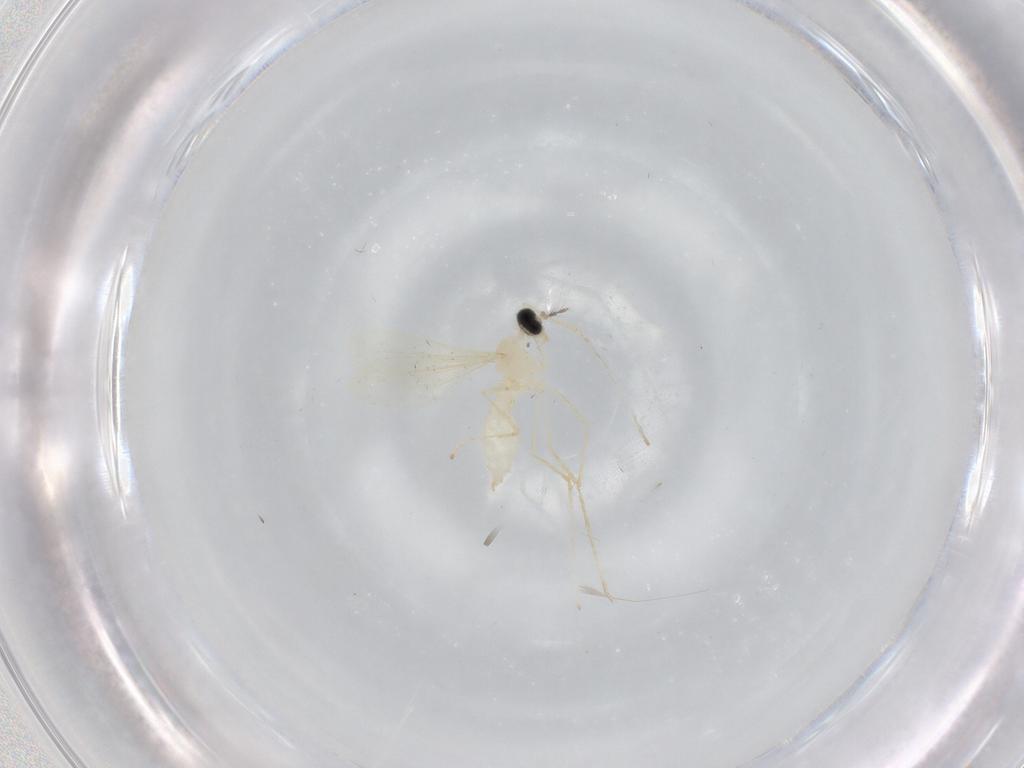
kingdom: Animalia
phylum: Arthropoda
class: Insecta
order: Diptera
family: Cecidomyiidae
